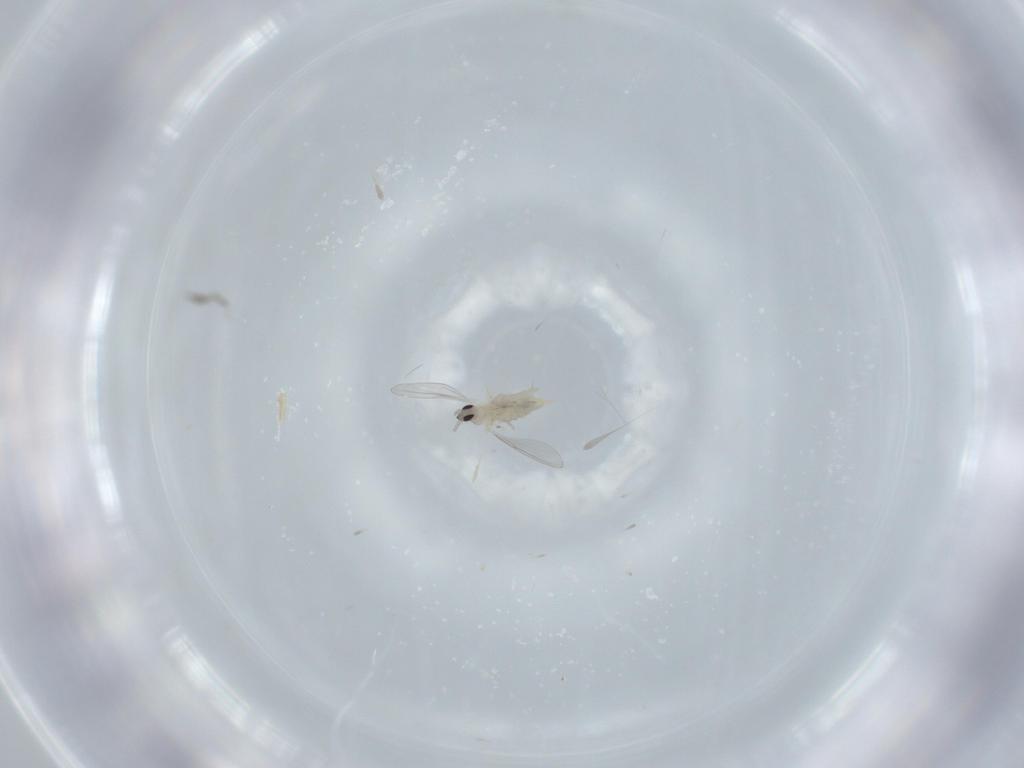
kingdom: Animalia
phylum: Arthropoda
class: Insecta
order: Diptera
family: Cecidomyiidae
